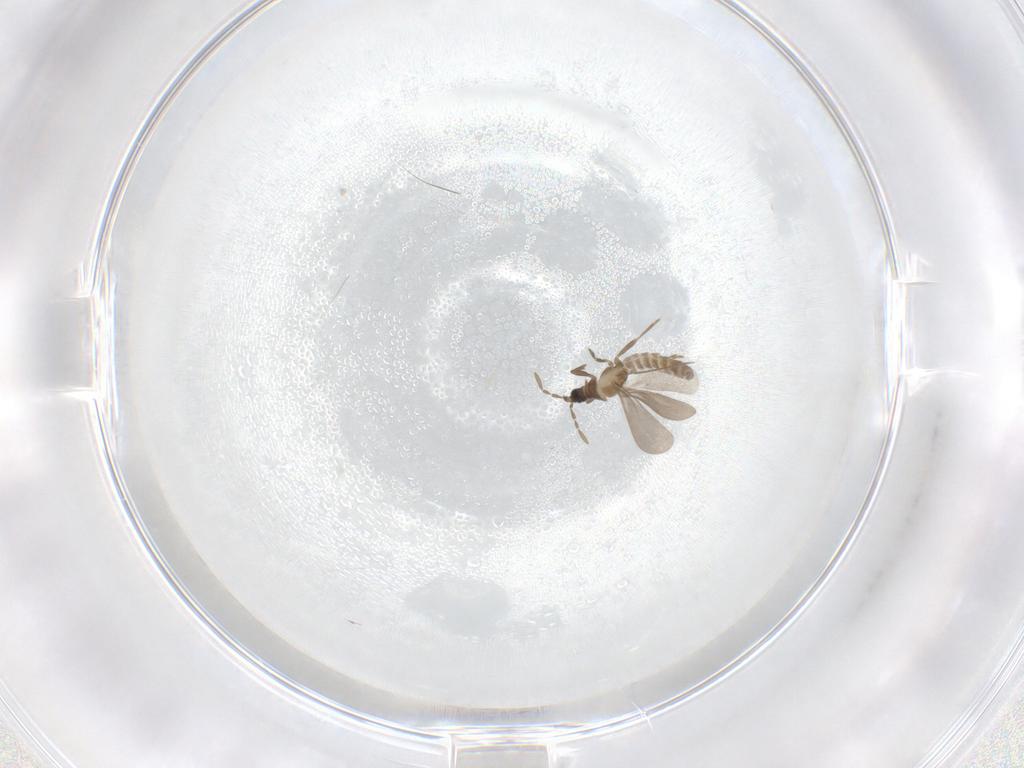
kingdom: Animalia
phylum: Arthropoda
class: Insecta
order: Hemiptera
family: Enicocephalidae
